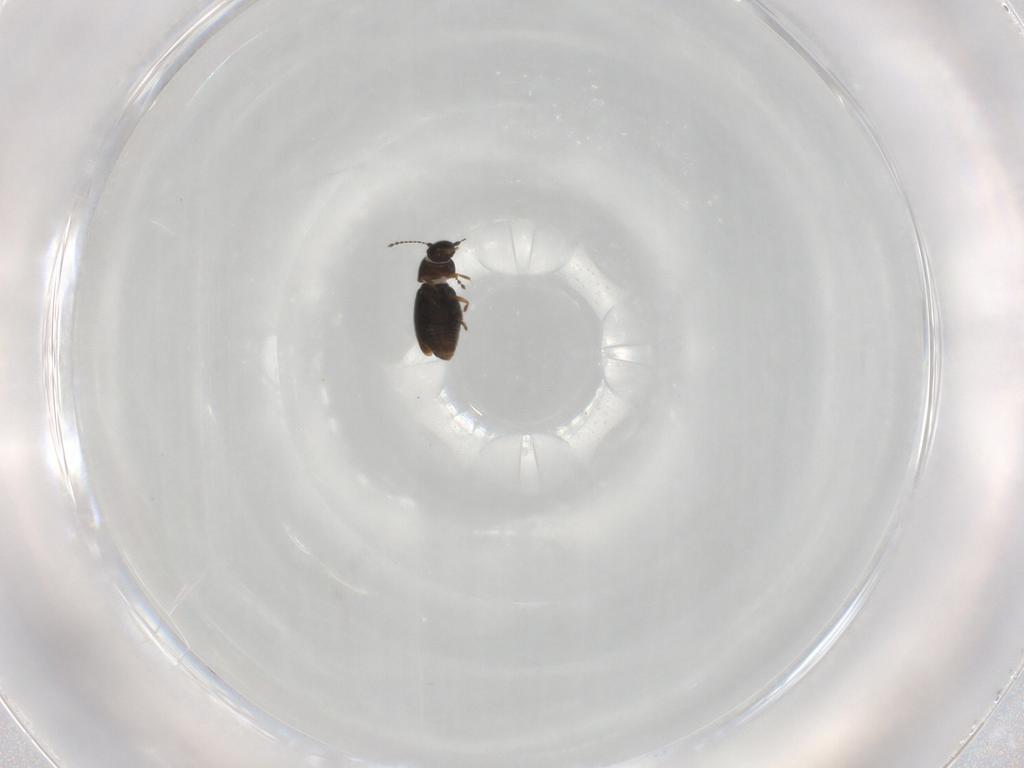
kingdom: Animalia
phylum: Arthropoda
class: Insecta
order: Coleoptera
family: Ptiliidae
